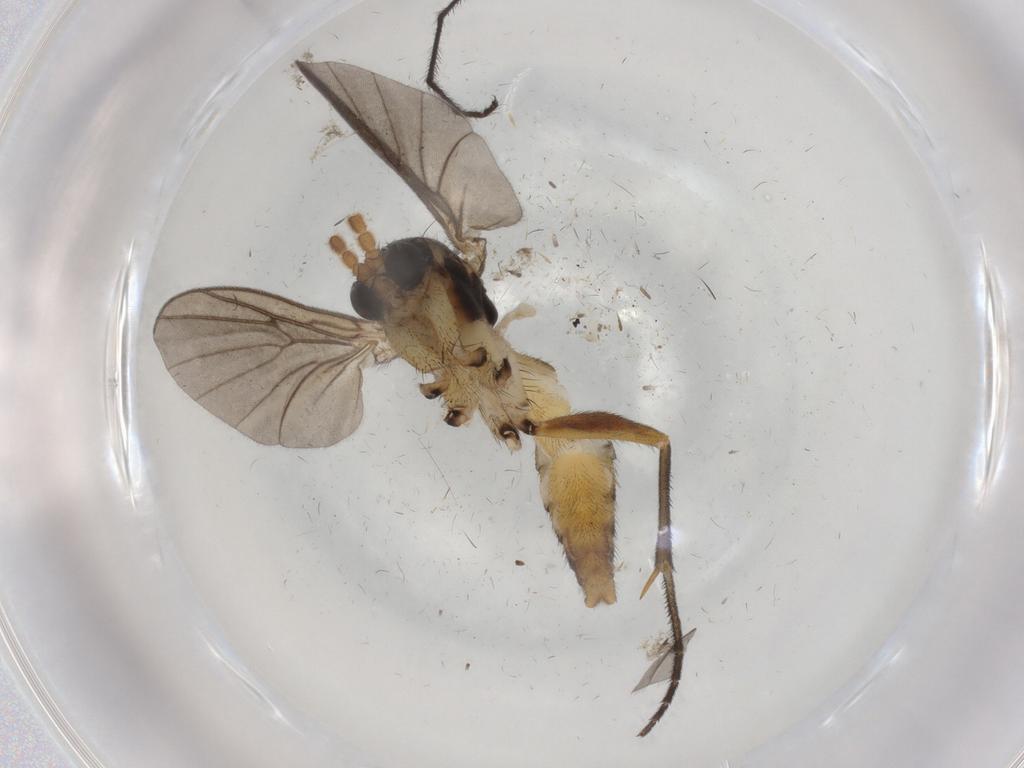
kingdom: Animalia
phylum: Arthropoda
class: Insecta
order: Diptera
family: Mycetophilidae
